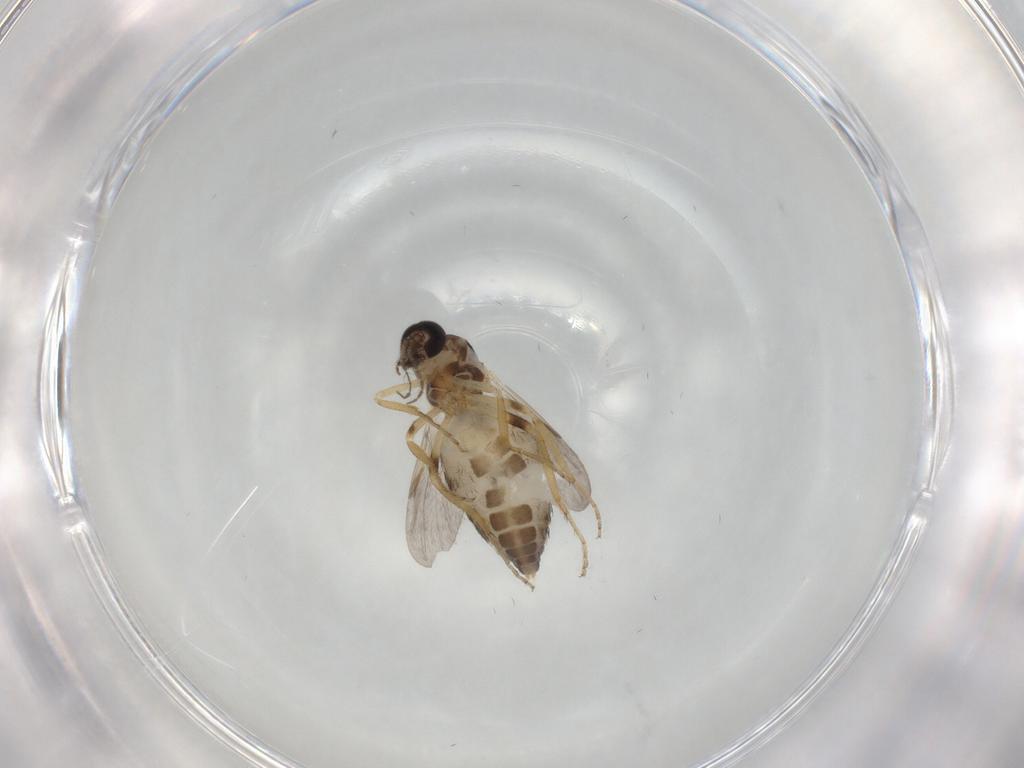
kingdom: Animalia
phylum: Arthropoda
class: Insecta
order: Diptera
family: Ceratopogonidae
